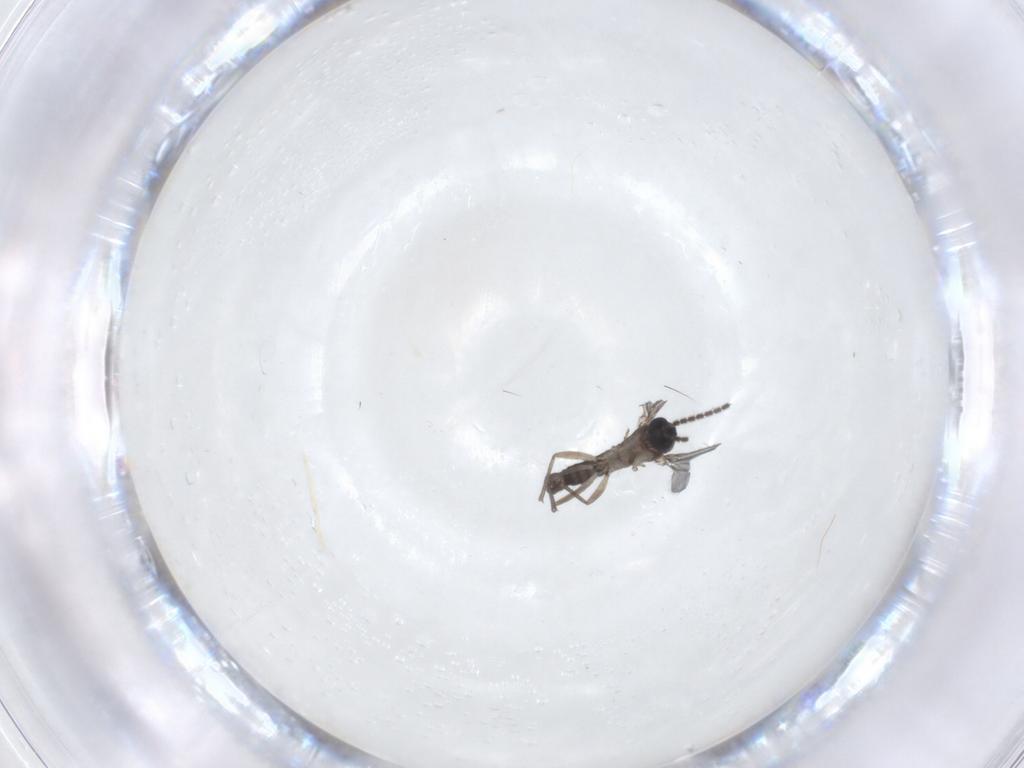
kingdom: Animalia
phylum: Arthropoda
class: Insecta
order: Diptera
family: Sciaridae
